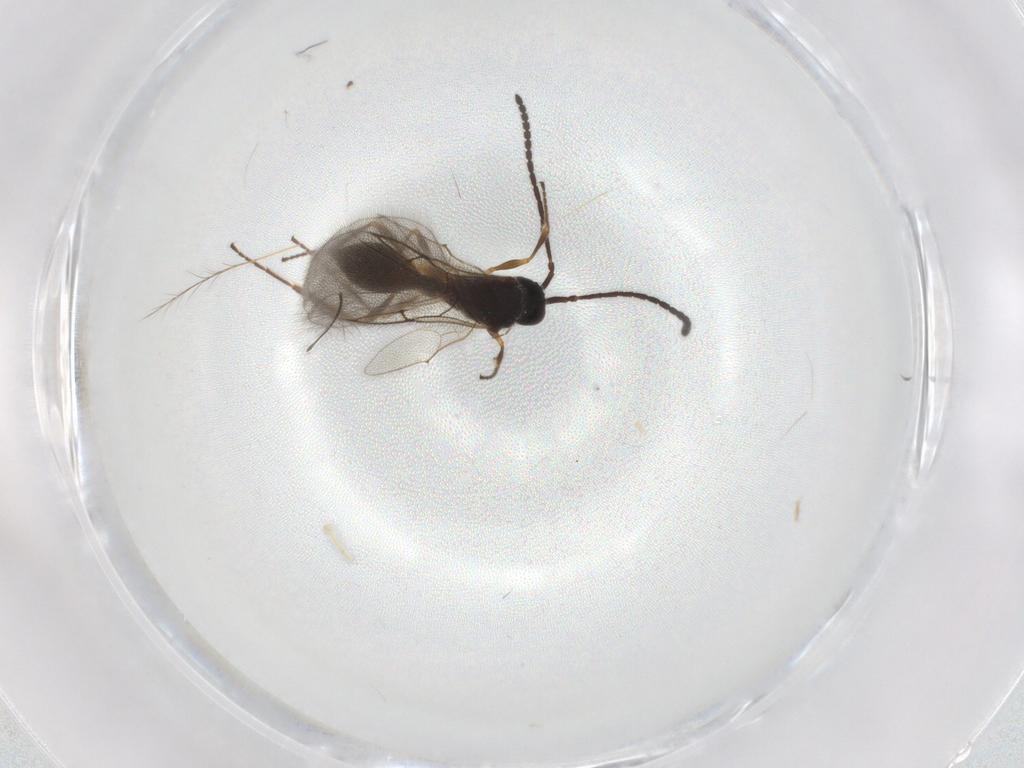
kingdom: Animalia
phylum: Arthropoda
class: Insecta
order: Hymenoptera
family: Diapriidae
